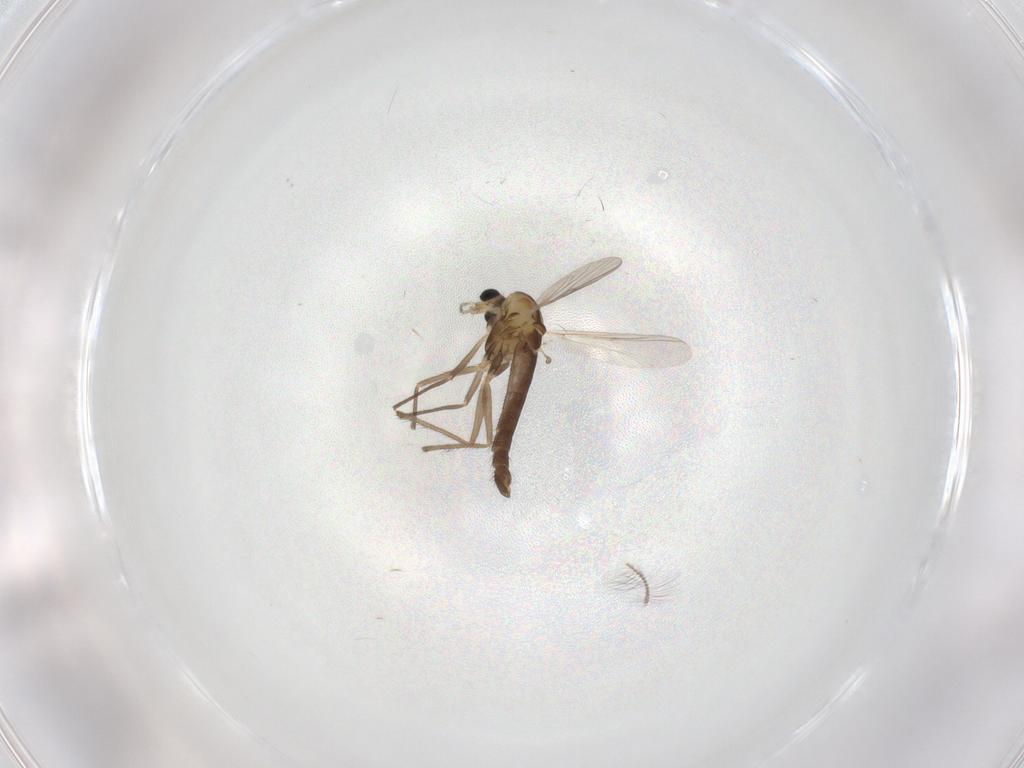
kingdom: Animalia
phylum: Arthropoda
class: Insecta
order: Diptera
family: Chironomidae
